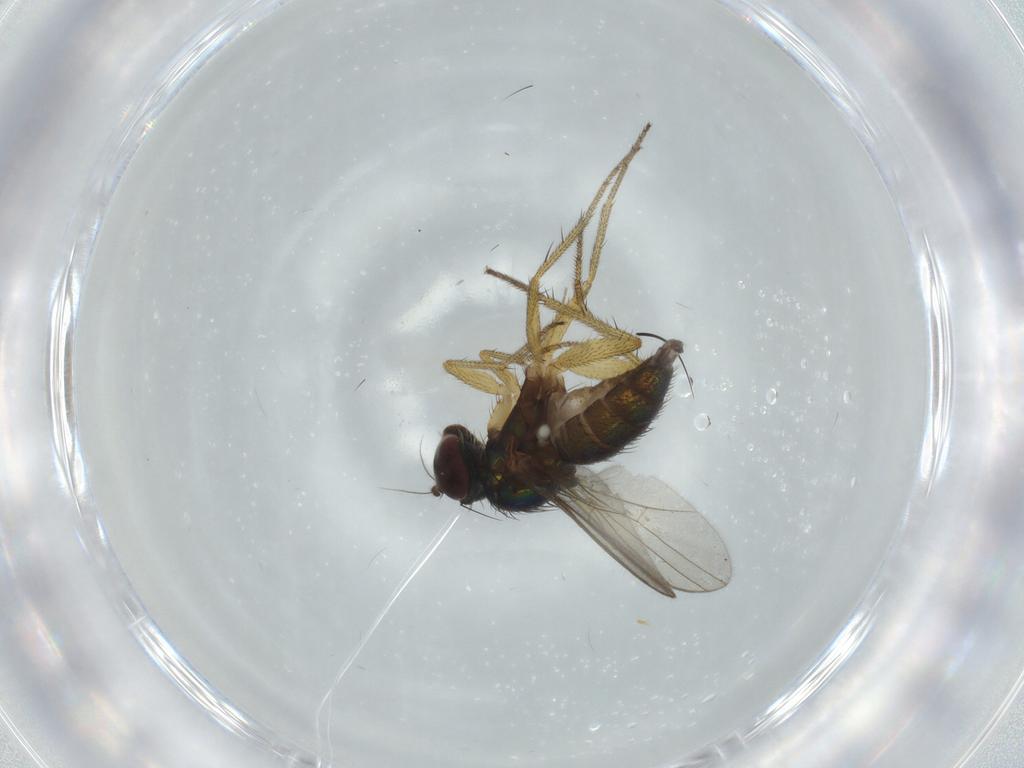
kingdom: Animalia
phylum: Arthropoda
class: Insecta
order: Diptera
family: Dolichopodidae
